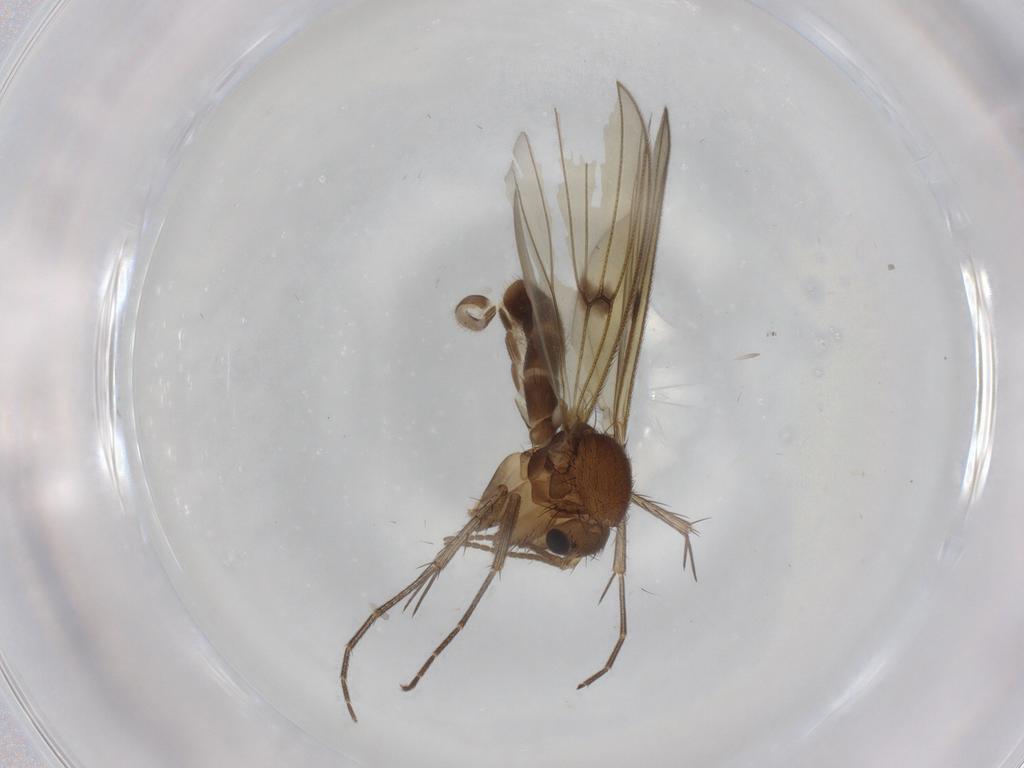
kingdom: Animalia
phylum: Arthropoda
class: Insecta
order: Diptera
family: Mycetophilidae
